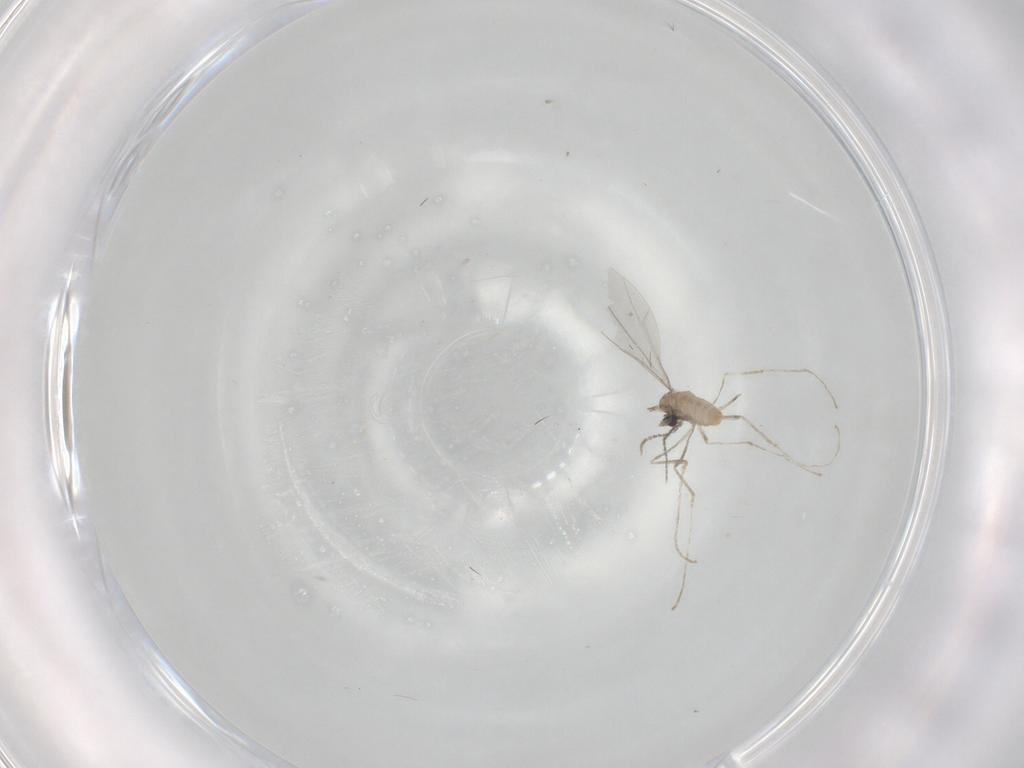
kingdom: Animalia
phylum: Arthropoda
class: Insecta
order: Diptera
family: Cecidomyiidae
